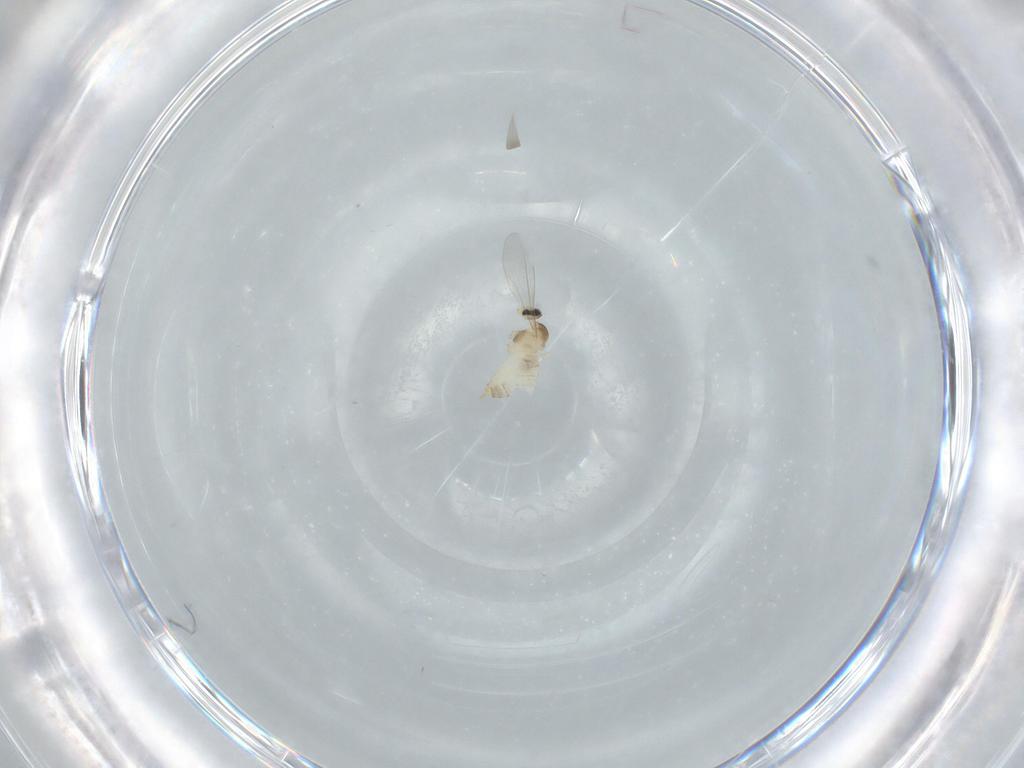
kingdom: Animalia
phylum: Arthropoda
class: Insecta
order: Diptera
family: Cecidomyiidae
